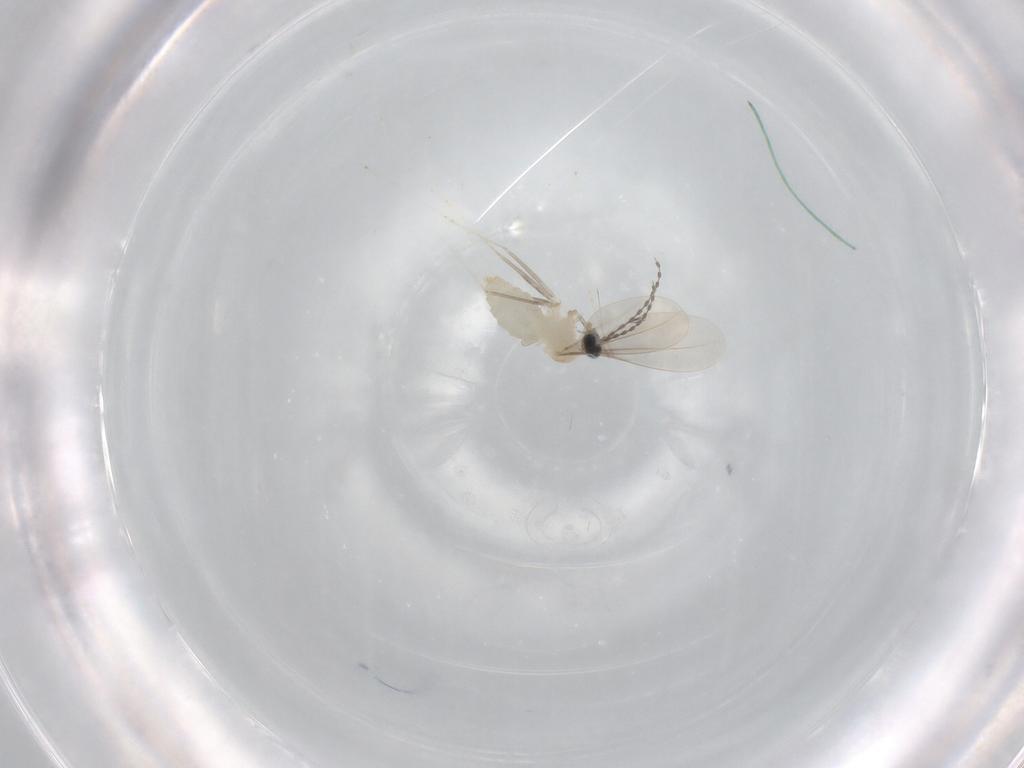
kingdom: Animalia
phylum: Arthropoda
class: Insecta
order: Diptera
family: Cecidomyiidae
